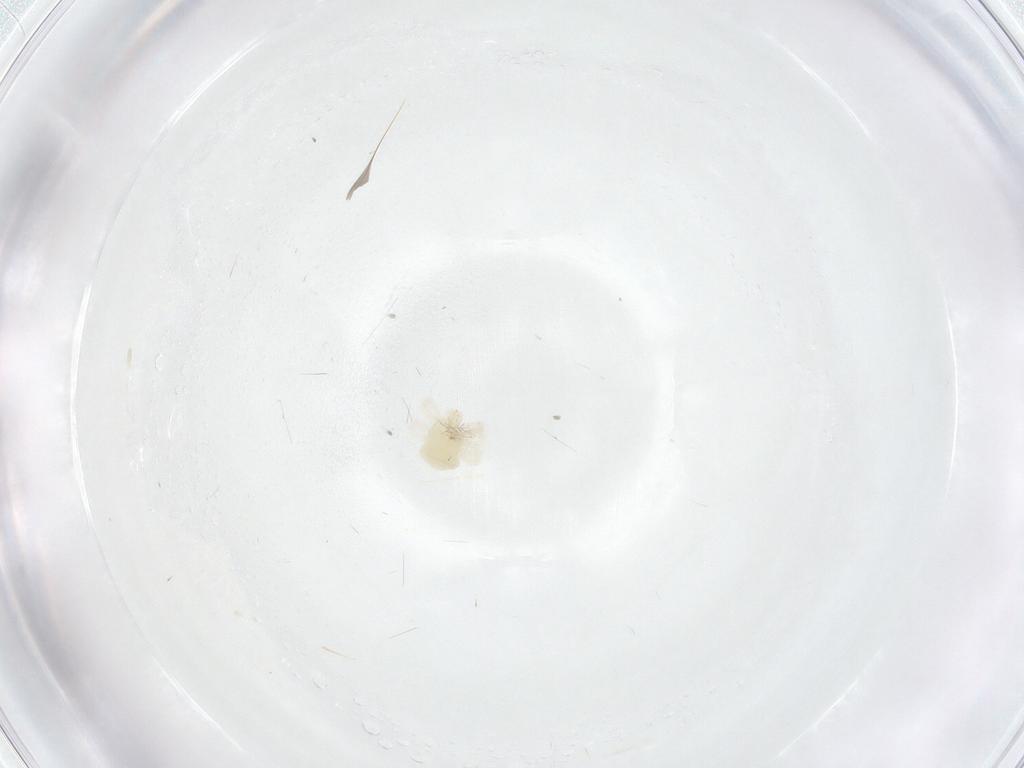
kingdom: Animalia
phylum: Arthropoda
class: Arachnida
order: Trombidiformes
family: Anystidae
